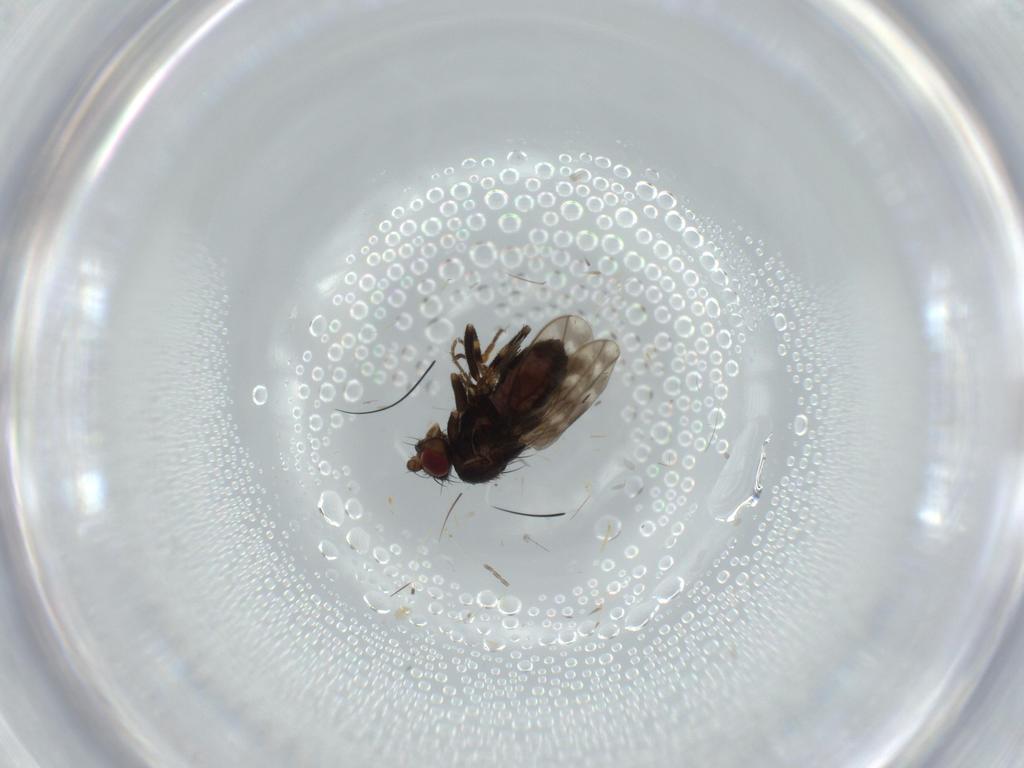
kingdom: Animalia
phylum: Arthropoda
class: Insecta
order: Diptera
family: Sphaeroceridae
